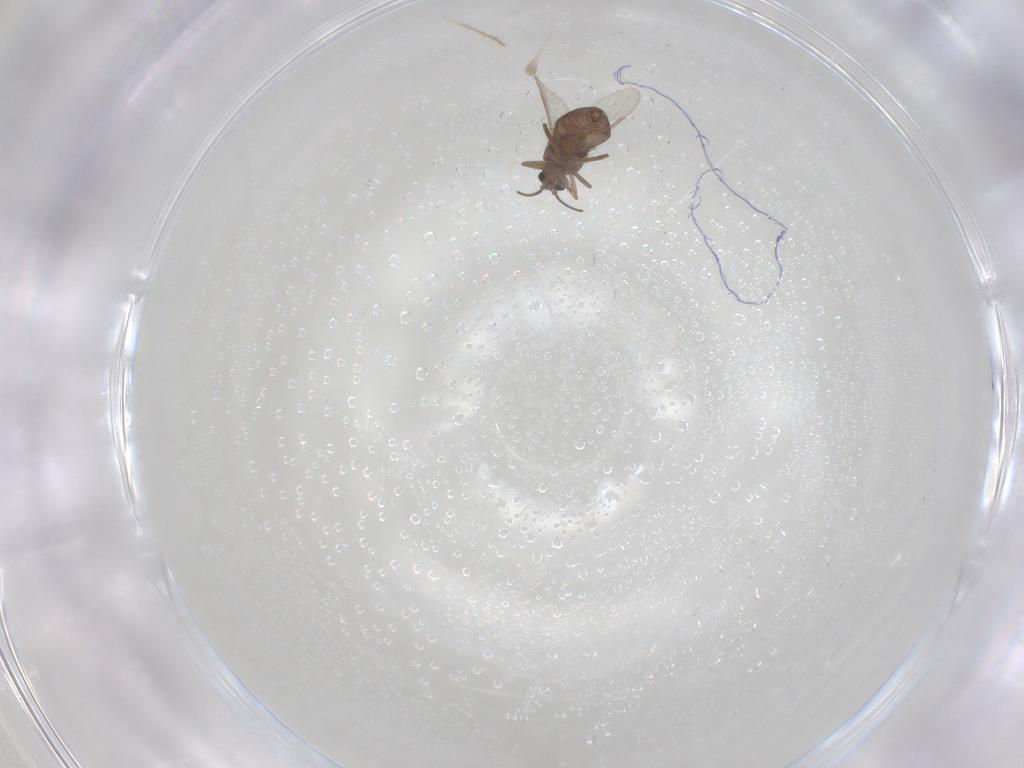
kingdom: Animalia
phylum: Arthropoda
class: Insecta
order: Diptera
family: Ceratopogonidae
